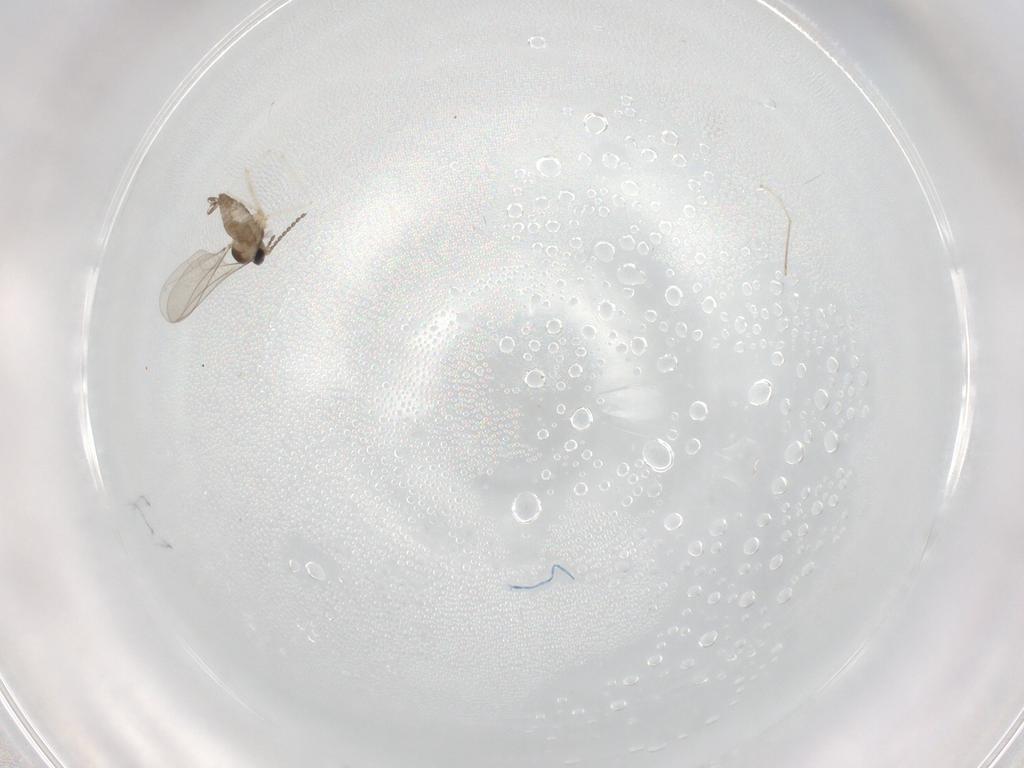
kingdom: Animalia
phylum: Arthropoda
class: Insecta
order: Diptera
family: Cecidomyiidae
